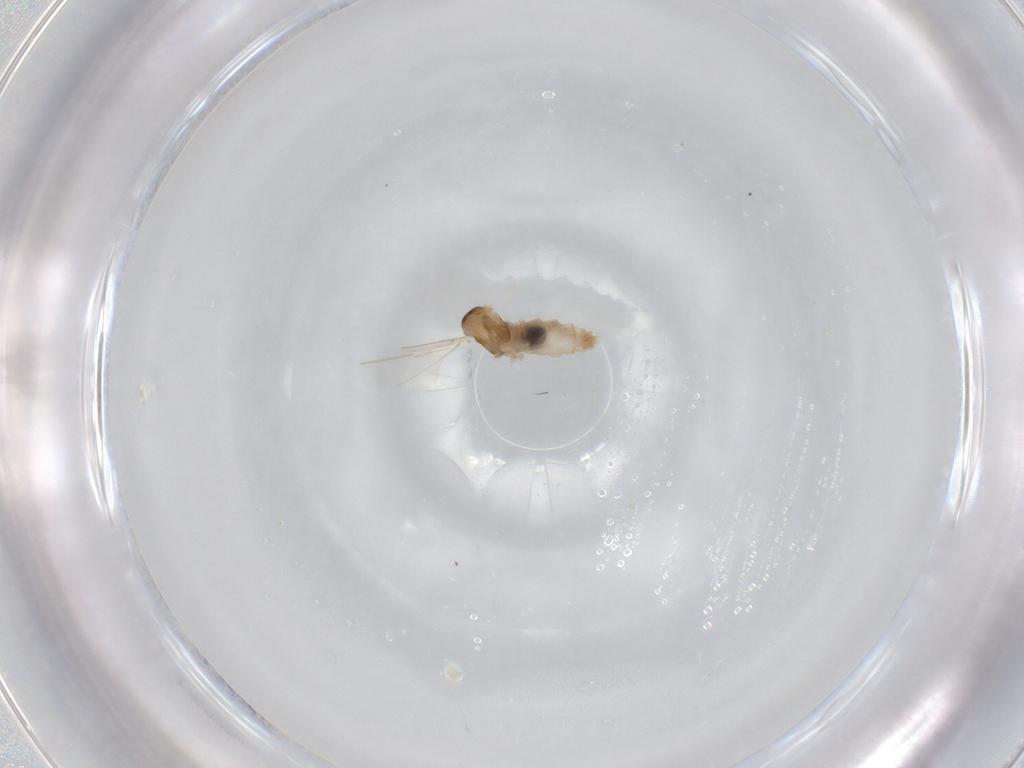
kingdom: Animalia
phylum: Arthropoda
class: Insecta
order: Diptera
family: Cecidomyiidae
